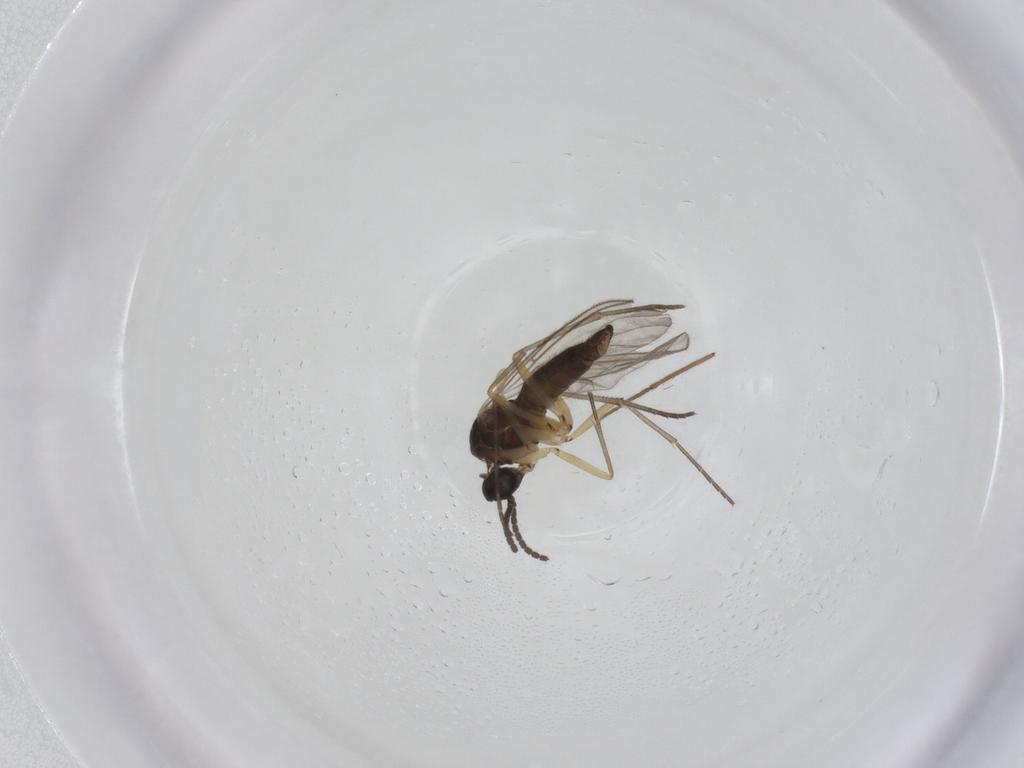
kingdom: Animalia
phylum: Arthropoda
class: Insecta
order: Diptera
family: Sciaridae
